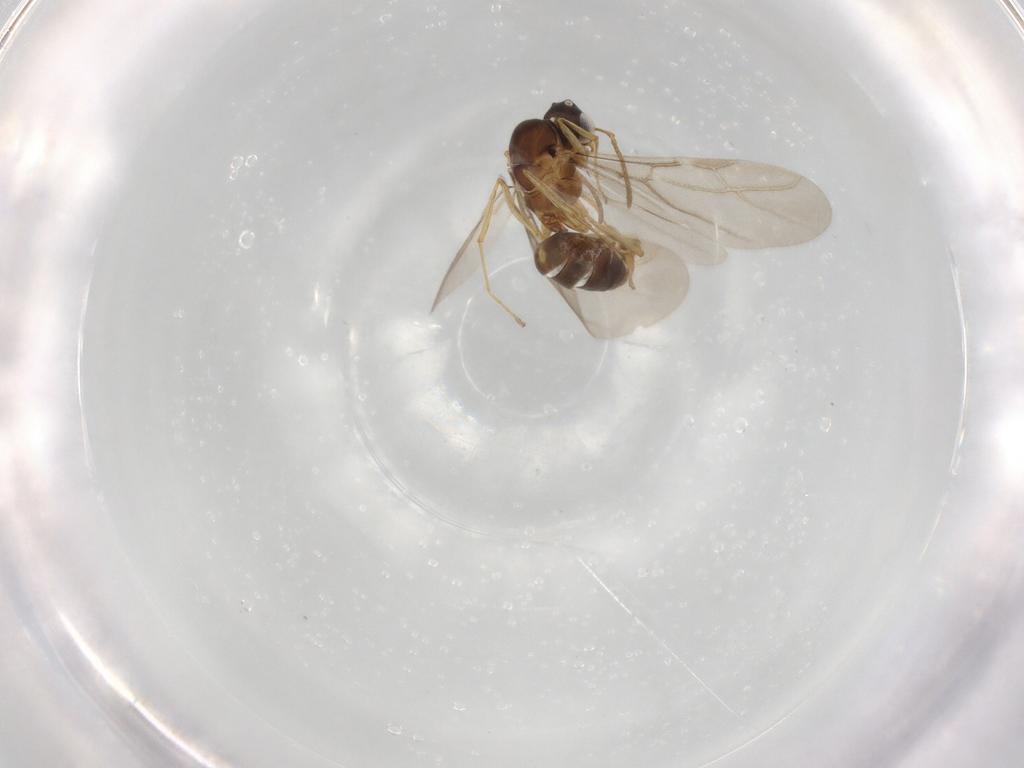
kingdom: Animalia
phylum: Arthropoda
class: Insecta
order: Hymenoptera
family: Formicidae
